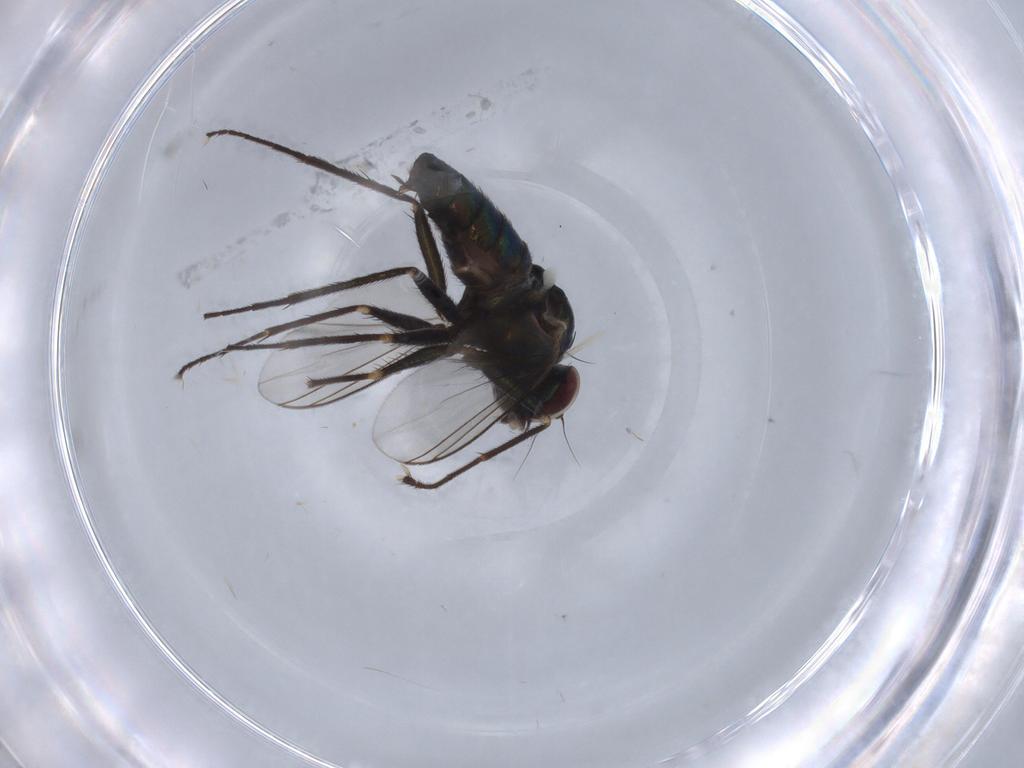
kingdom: Animalia
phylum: Arthropoda
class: Insecta
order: Diptera
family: Dolichopodidae
